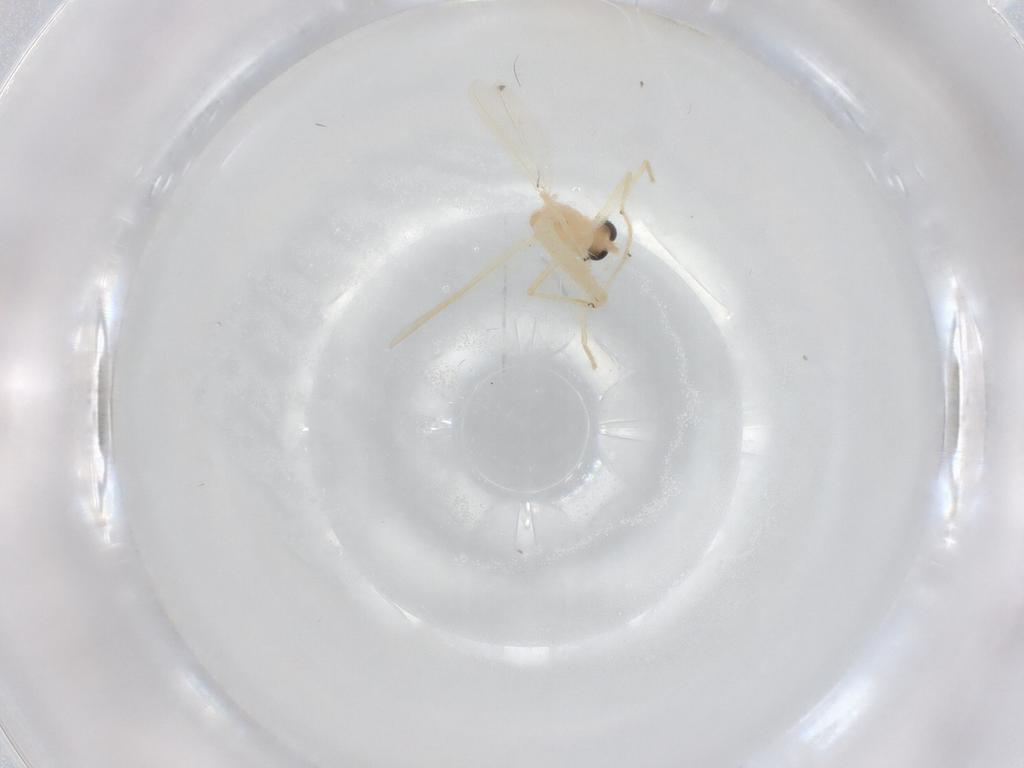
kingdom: Animalia
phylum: Arthropoda
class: Insecta
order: Diptera
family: Chironomidae
